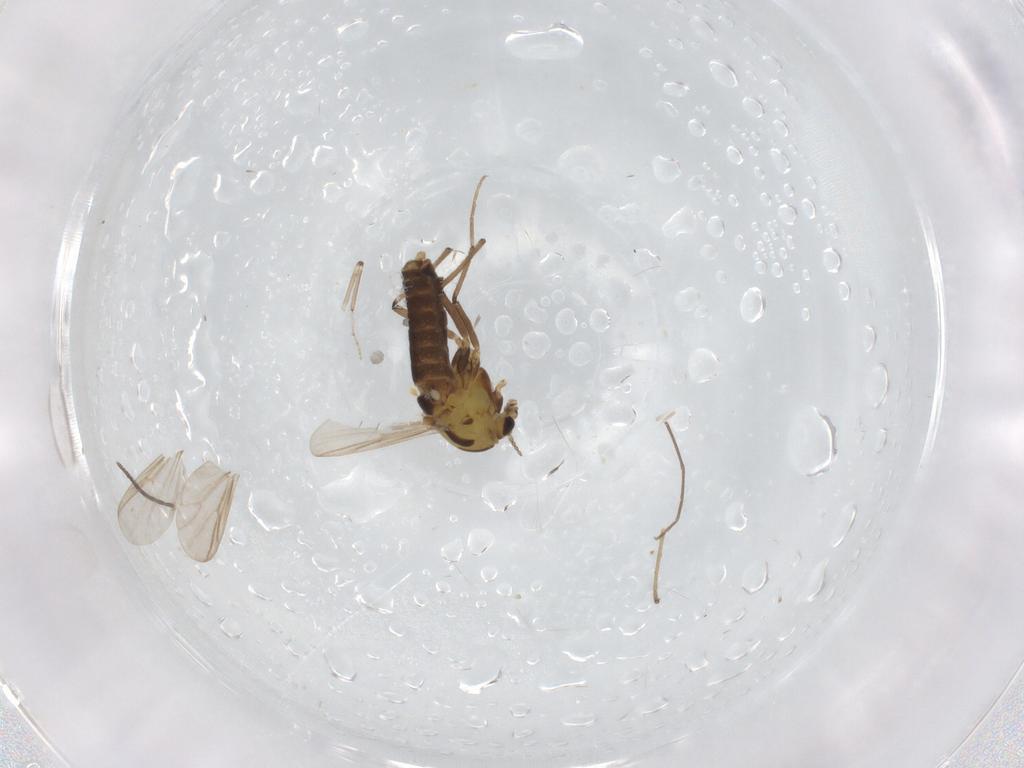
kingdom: Animalia
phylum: Arthropoda
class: Insecta
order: Diptera
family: Chironomidae
